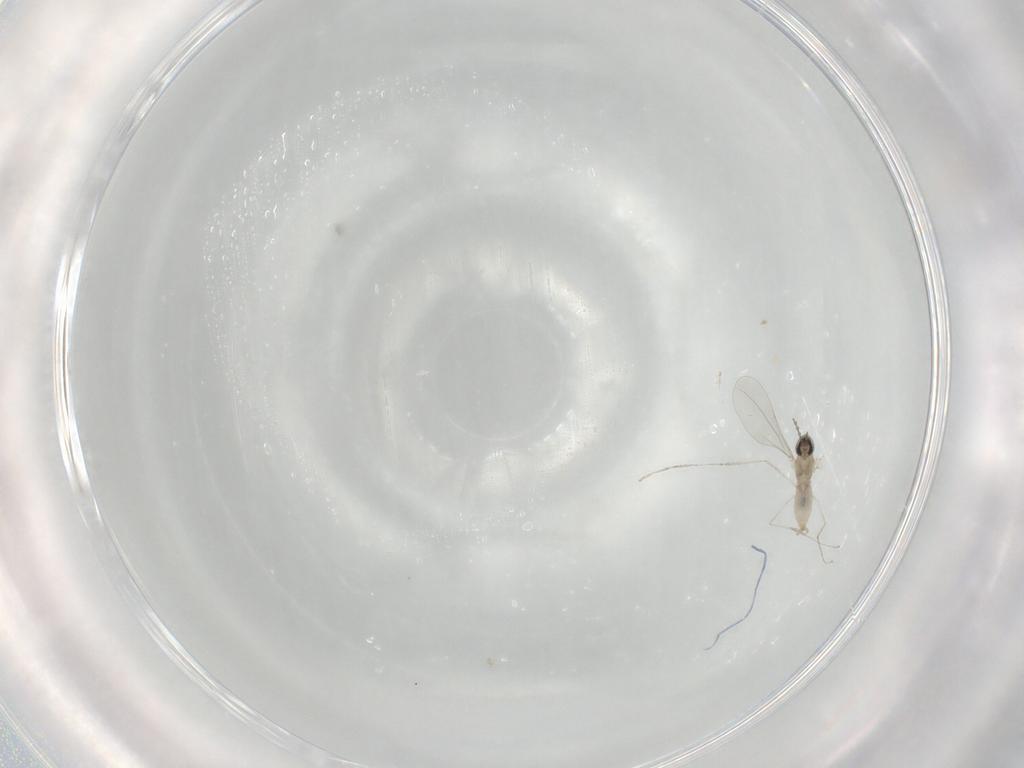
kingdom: Animalia
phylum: Arthropoda
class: Insecta
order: Diptera
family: Cecidomyiidae
